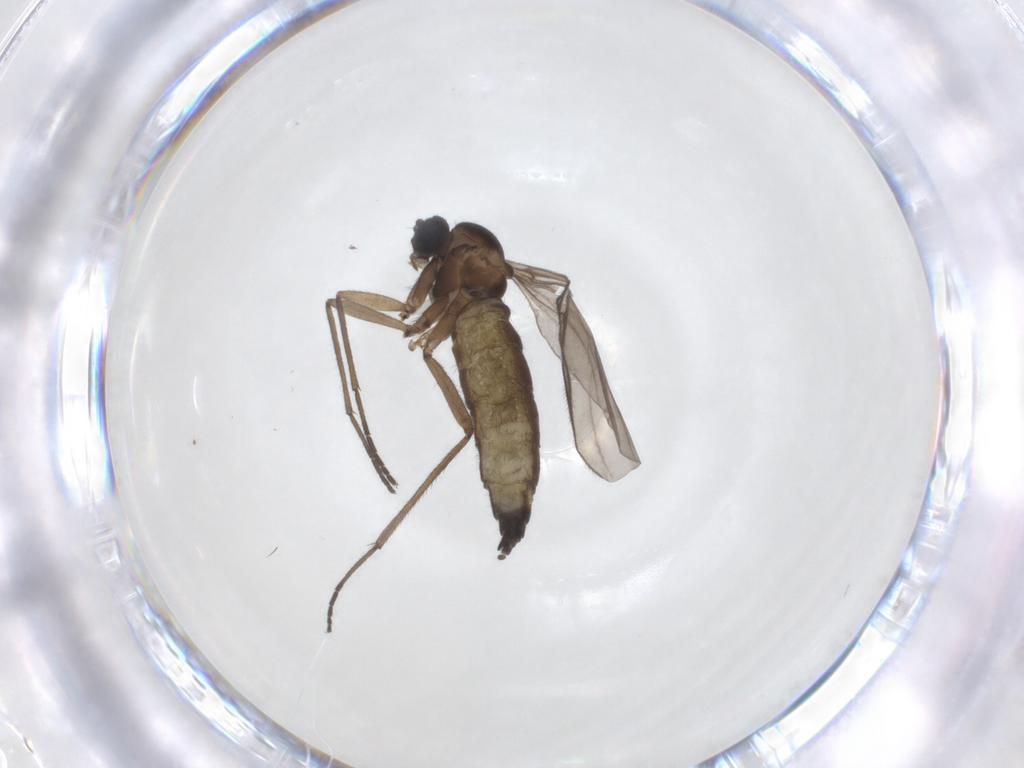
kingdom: Animalia
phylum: Arthropoda
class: Insecta
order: Diptera
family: Sciaridae
